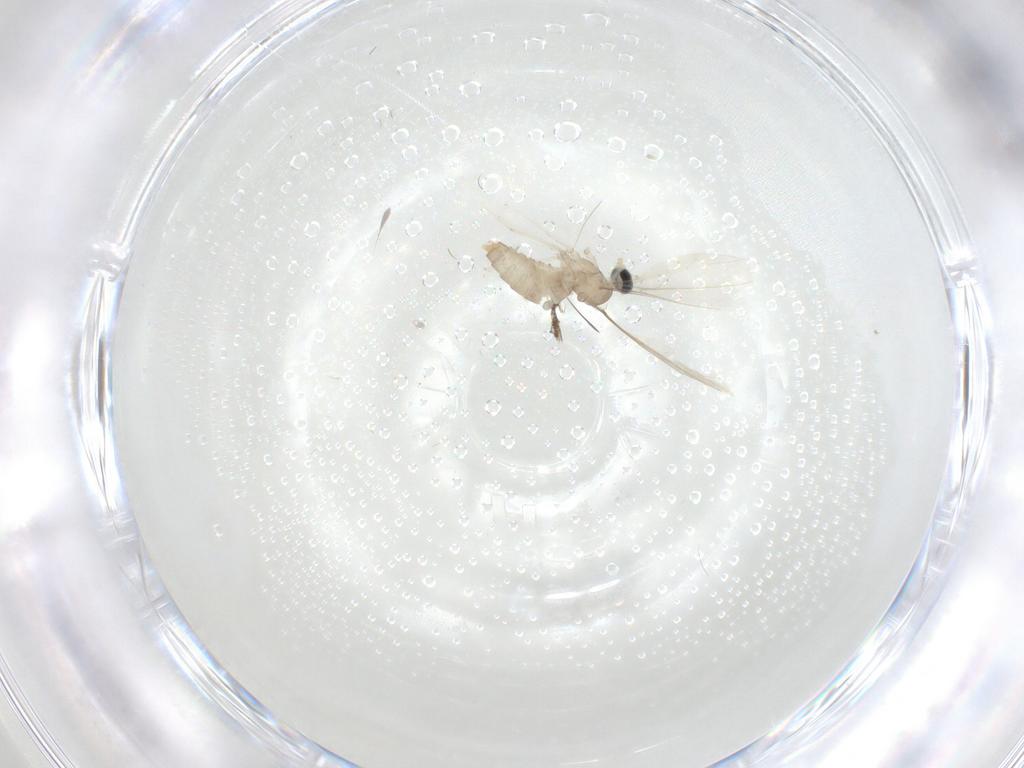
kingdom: Animalia
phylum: Arthropoda
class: Insecta
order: Diptera
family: Cecidomyiidae
